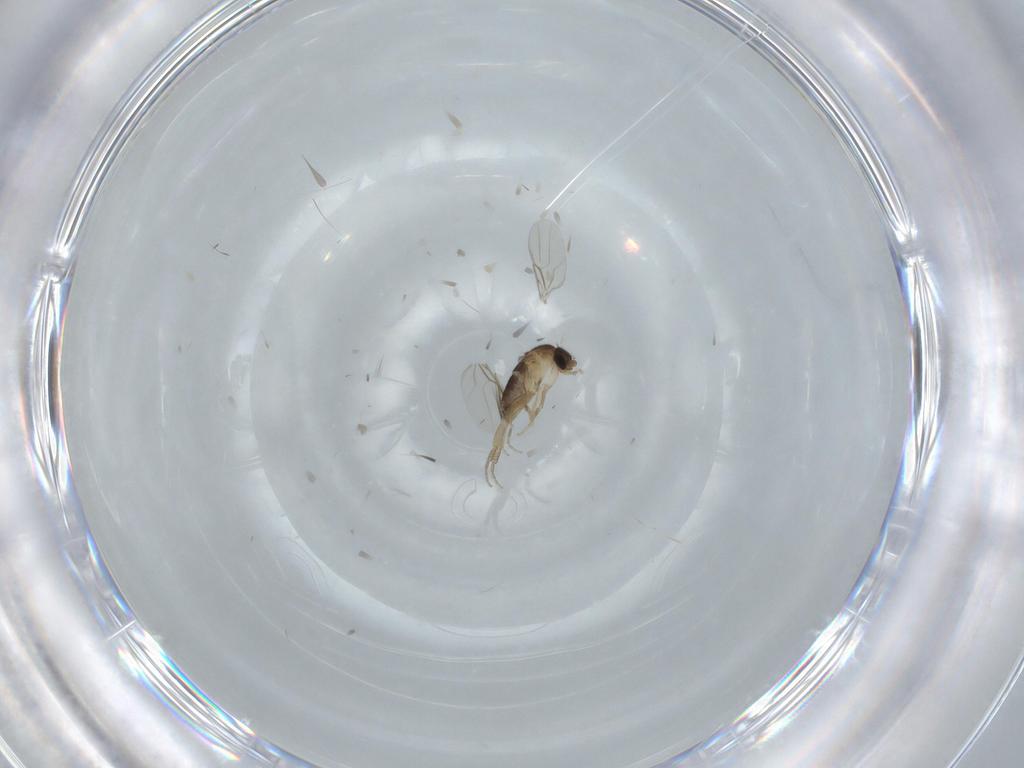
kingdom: Animalia
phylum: Arthropoda
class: Insecta
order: Diptera
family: Phoridae
